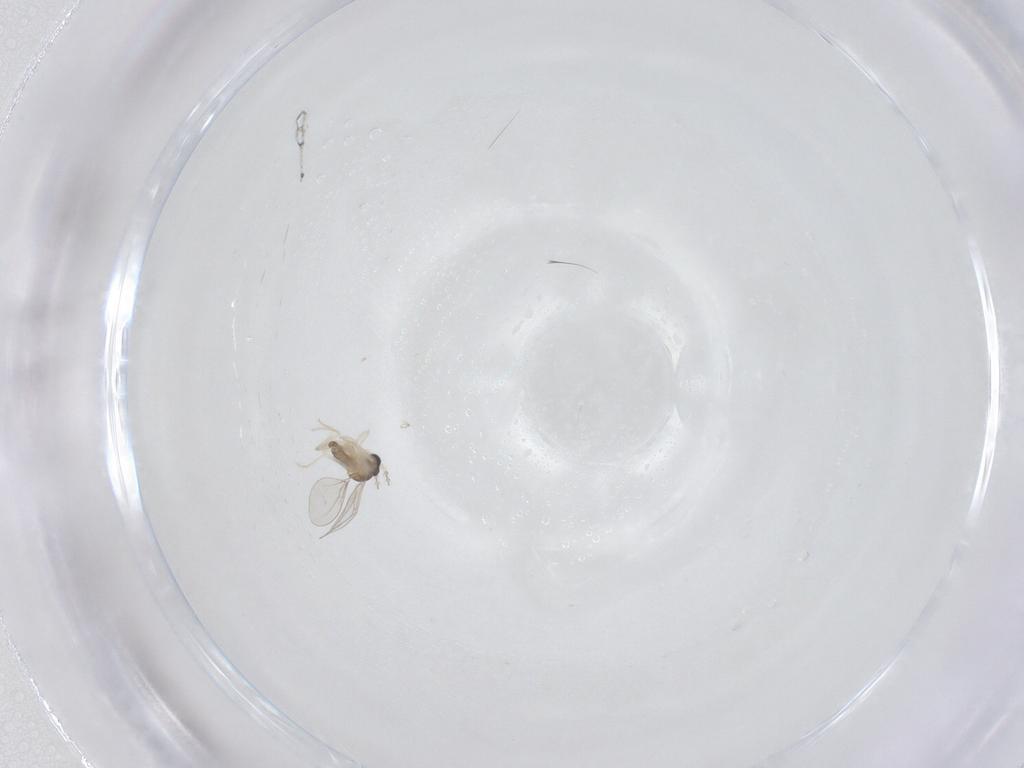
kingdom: Animalia
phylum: Arthropoda
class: Insecta
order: Diptera
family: Cecidomyiidae
